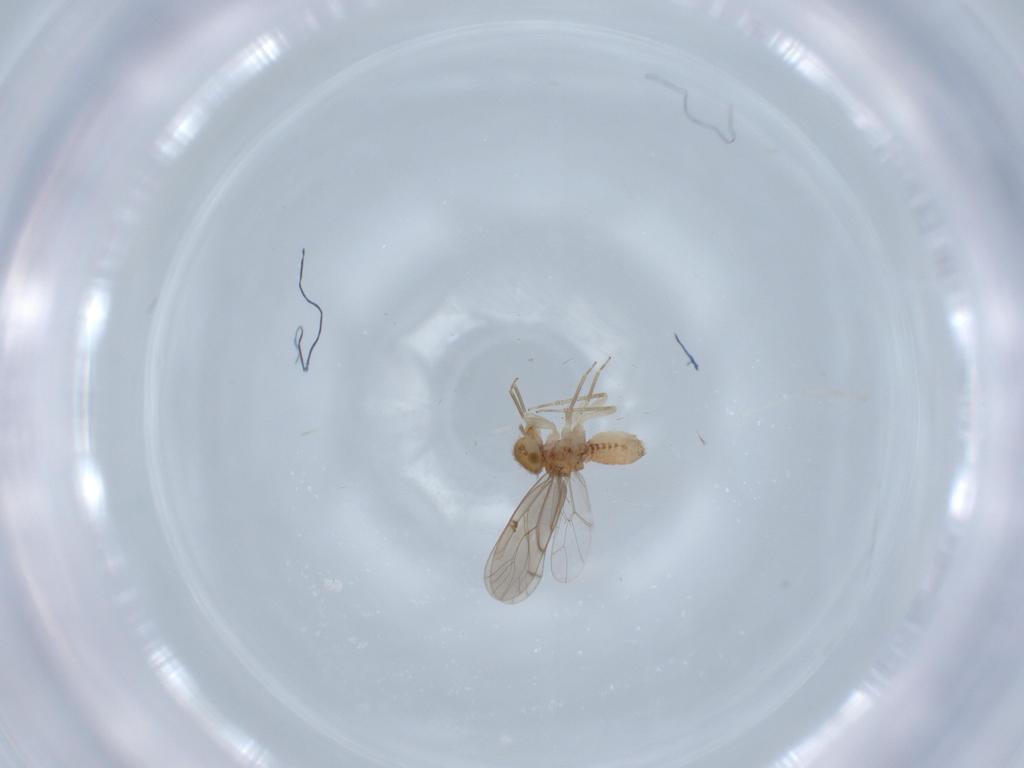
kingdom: Animalia
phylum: Arthropoda
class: Insecta
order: Psocodea
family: Ectopsocidae
